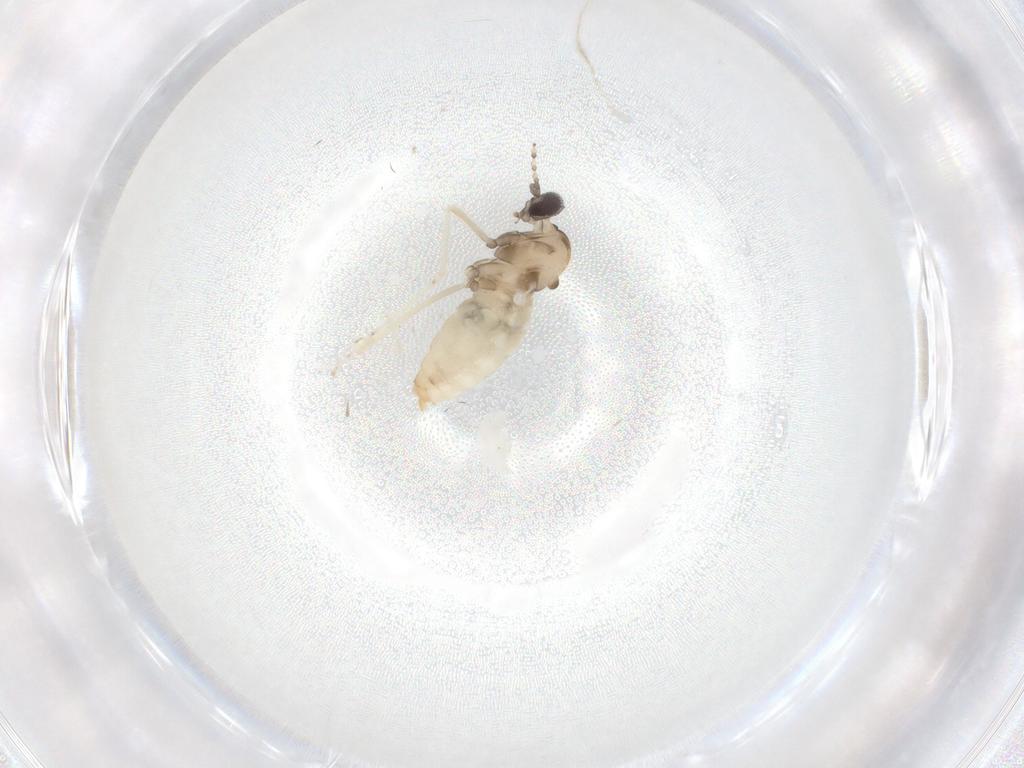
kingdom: Animalia
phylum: Arthropoda
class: Insecta
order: Diptera
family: Cecidomyiidae
